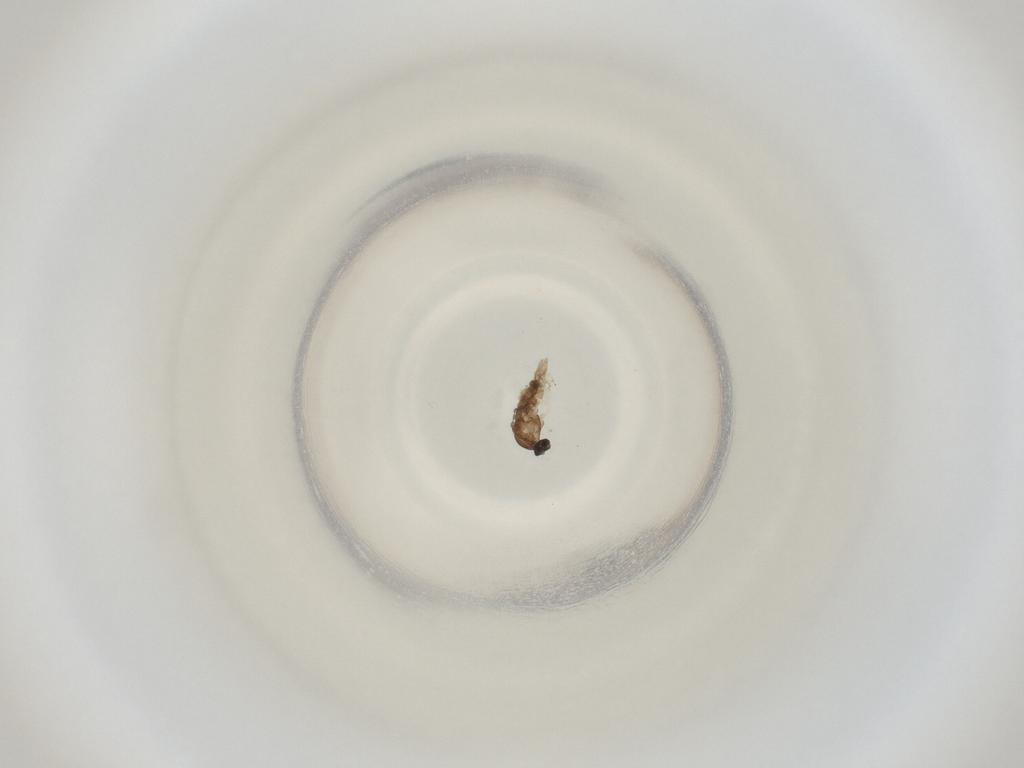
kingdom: Animalia
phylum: Arthropoda
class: Insecta
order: Diptera
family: Cecidomyiidae
